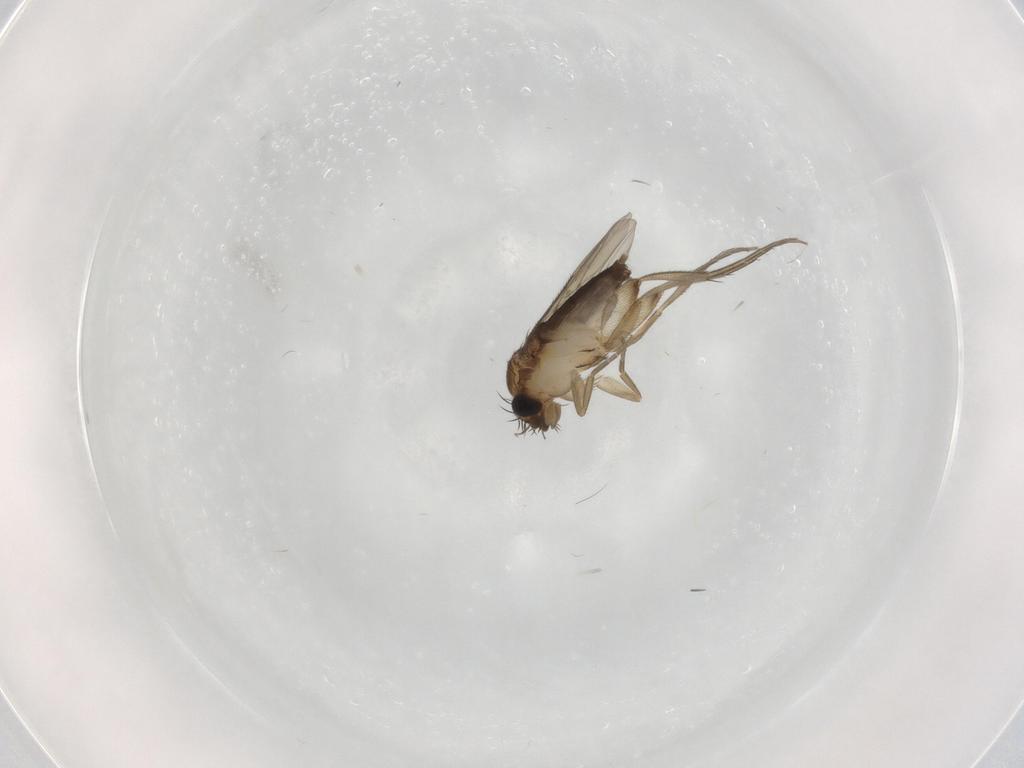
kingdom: Animalia
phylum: Arthropoda
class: Insecta
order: Diptera
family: Phoridae
